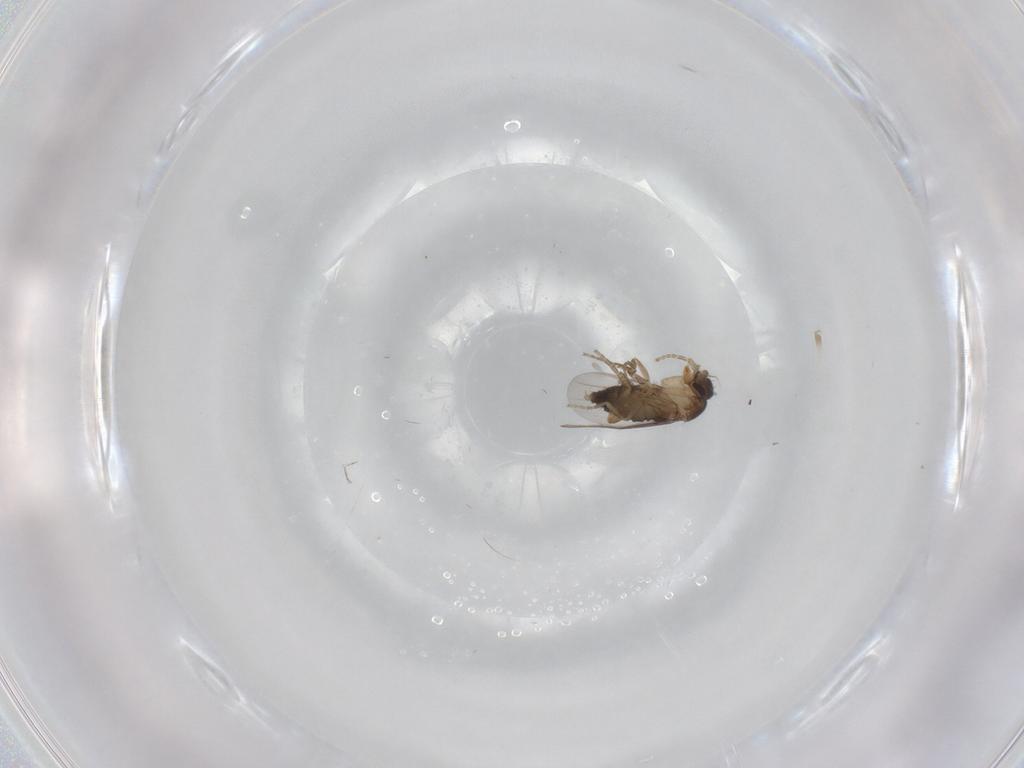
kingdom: Animalia
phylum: Arthropoda
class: Insecta
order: Diptera
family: Phoridae
